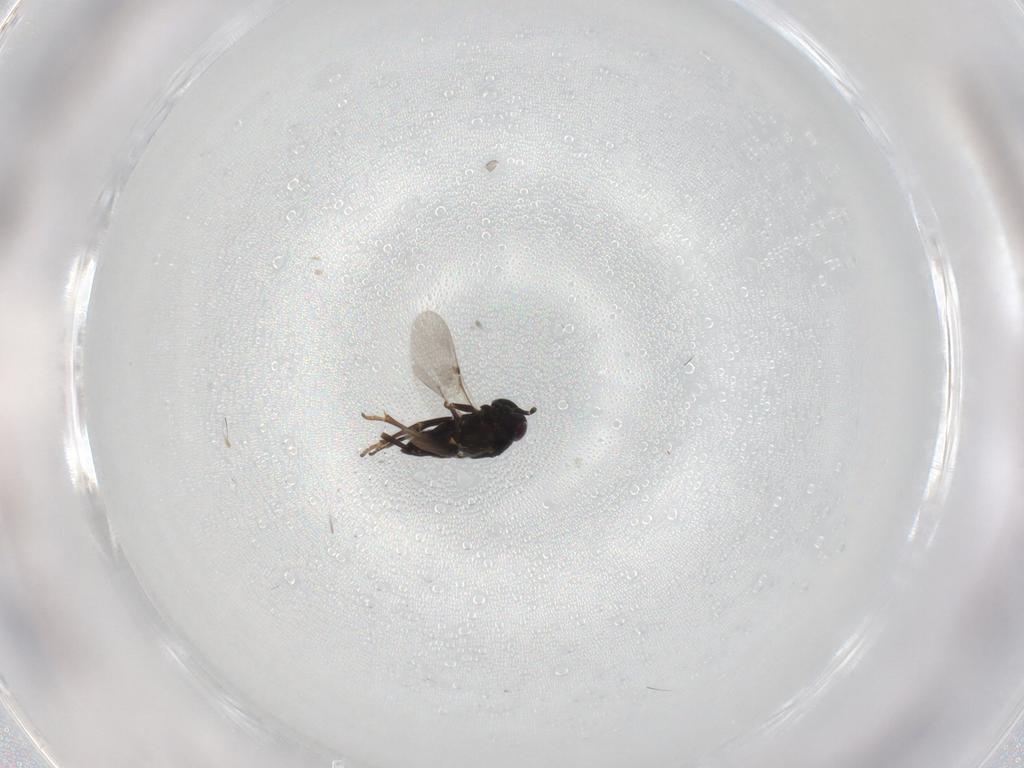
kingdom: Animalia
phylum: Arthropoda
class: Insecta
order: Hymenoptera
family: Encyrtidae
